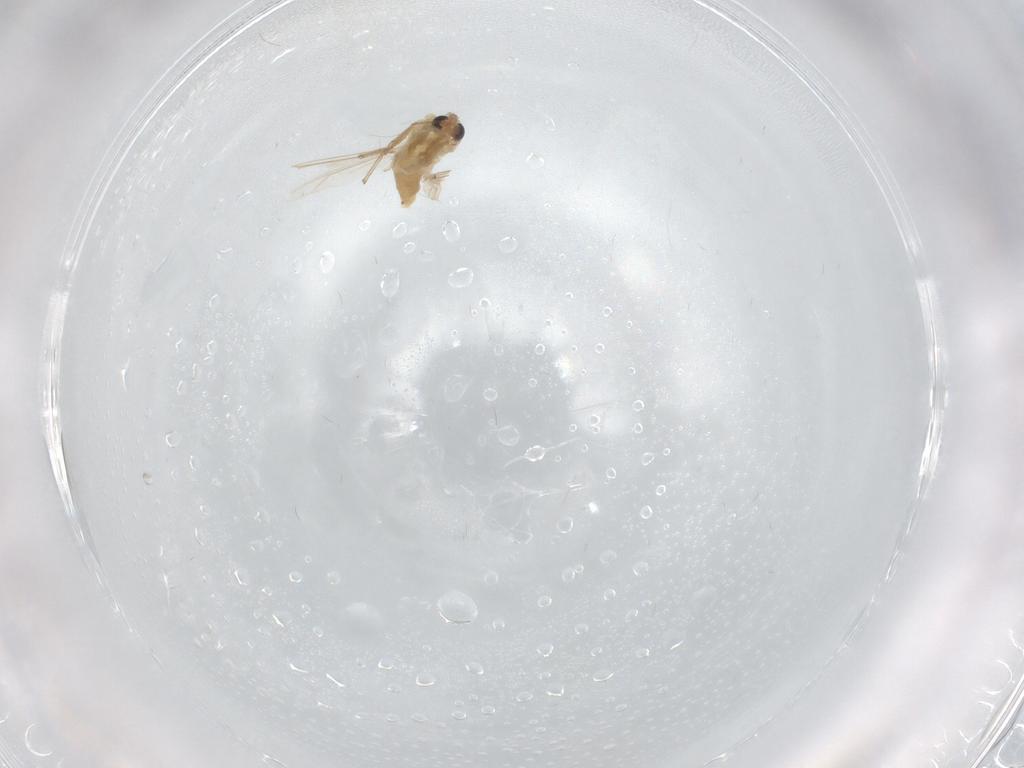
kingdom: Animalia
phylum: Arthropoda
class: Insecta
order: Diptera
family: Chironomidae
